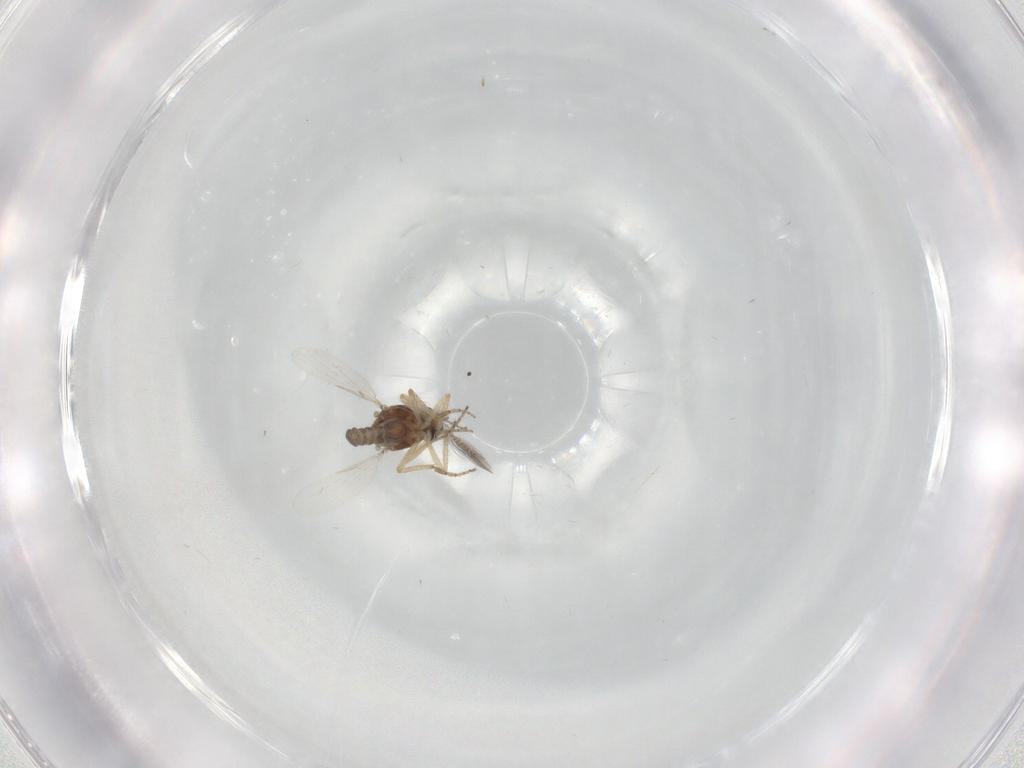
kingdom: Animalia
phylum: Arthropoda
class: Insecta
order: Diptera
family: Ceratopogonidae
